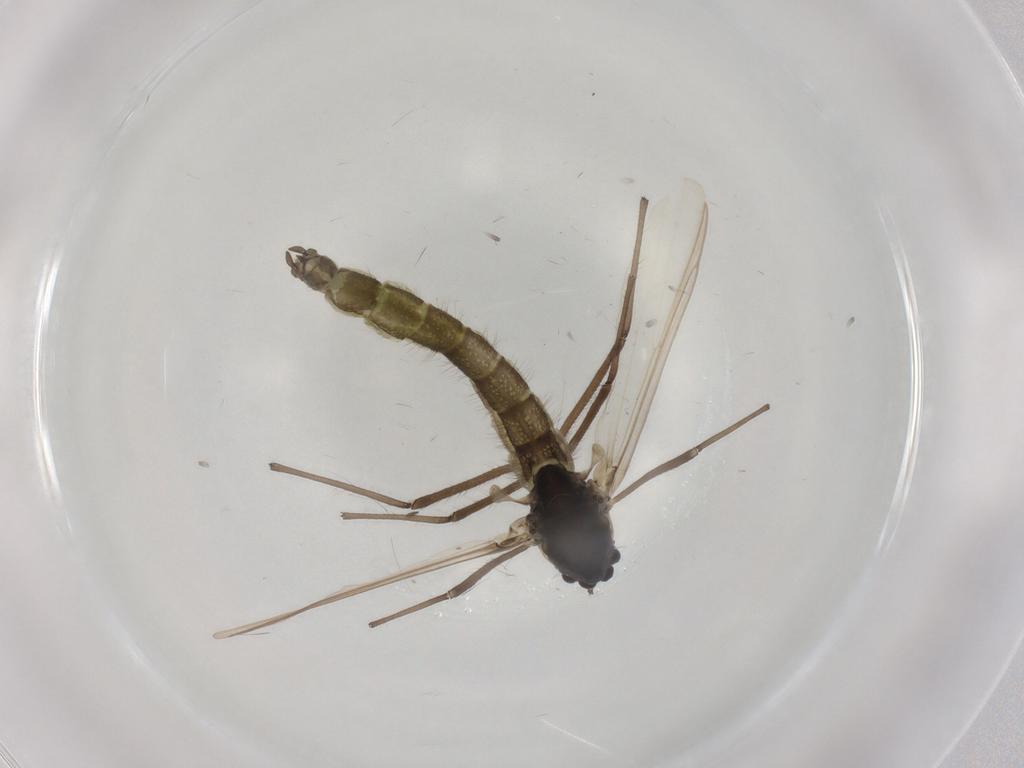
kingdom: Animalia
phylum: Arthropoda
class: Insecta
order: Diptera
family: Chironomidae
